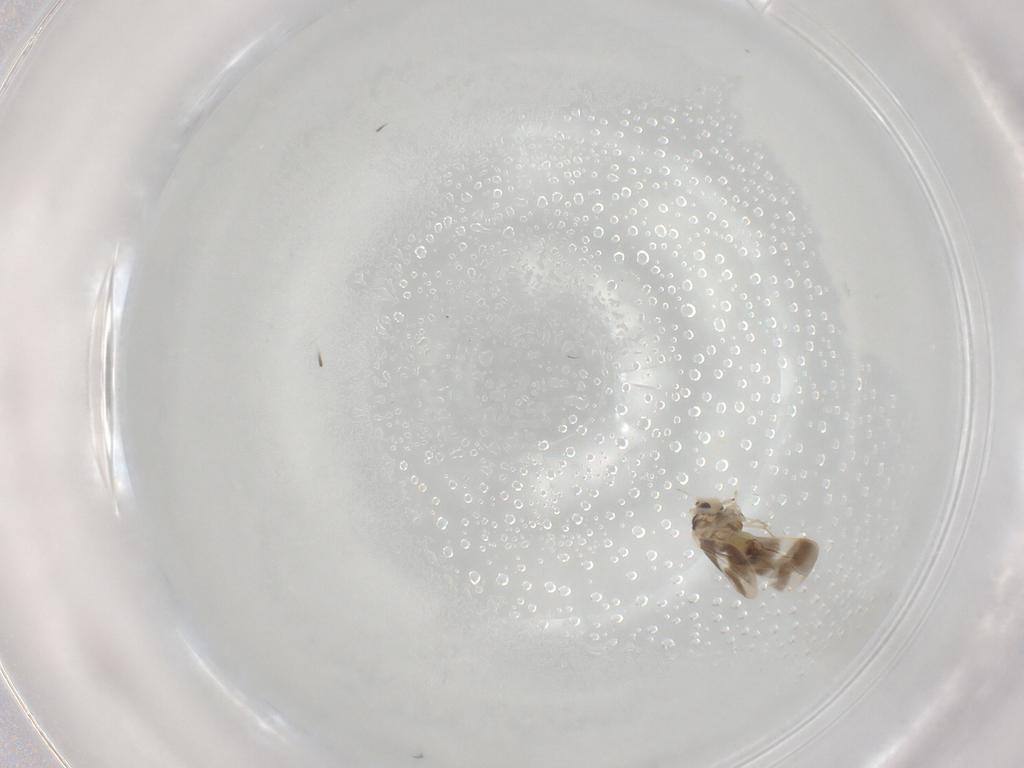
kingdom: Animalia
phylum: Arthropoda
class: Insecta
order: Hemiptera
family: Aleyrodidae
